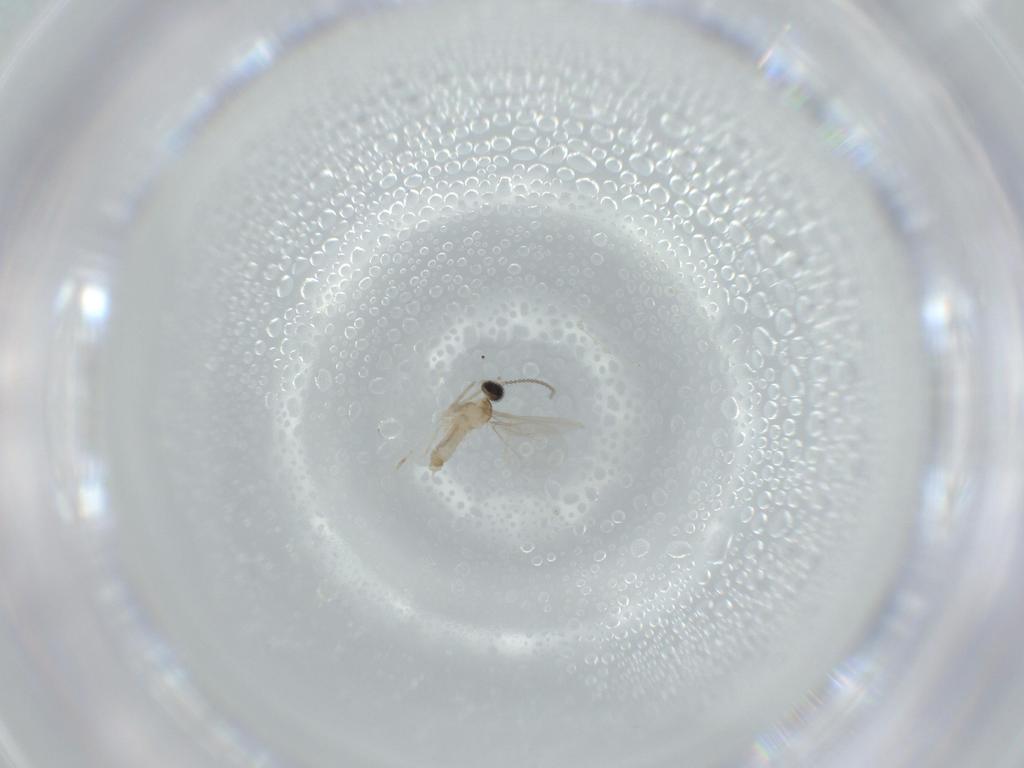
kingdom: Animalia
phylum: Arthropoda
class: Insecta
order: Diptera
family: Cecidomyiidae
